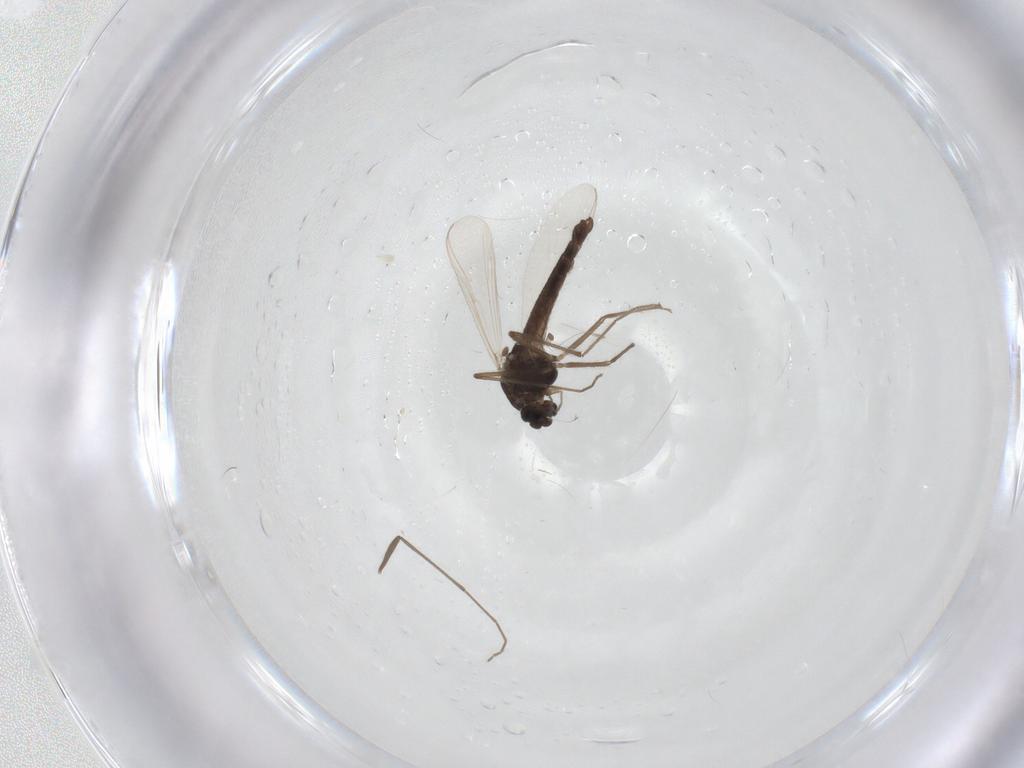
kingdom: Animalia
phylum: Arthropoda
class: Insecta
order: Diptera
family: Chironomidae
